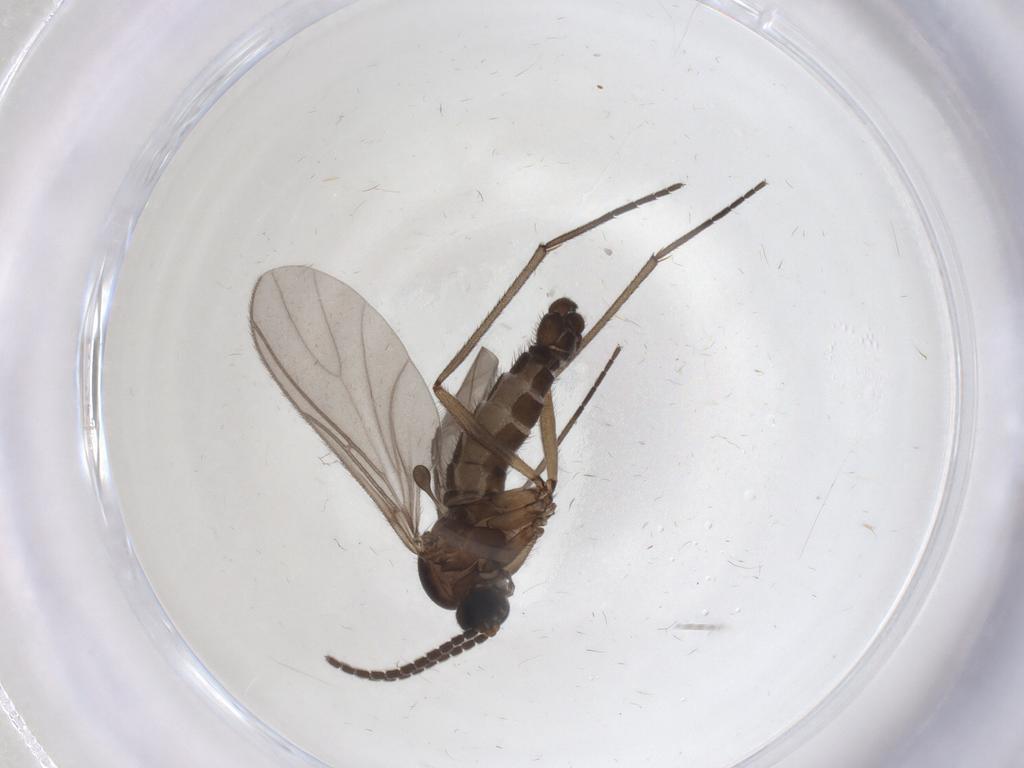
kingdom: Animalia
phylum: Arthropoda
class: Insecta
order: Diptera
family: Sciaridae
